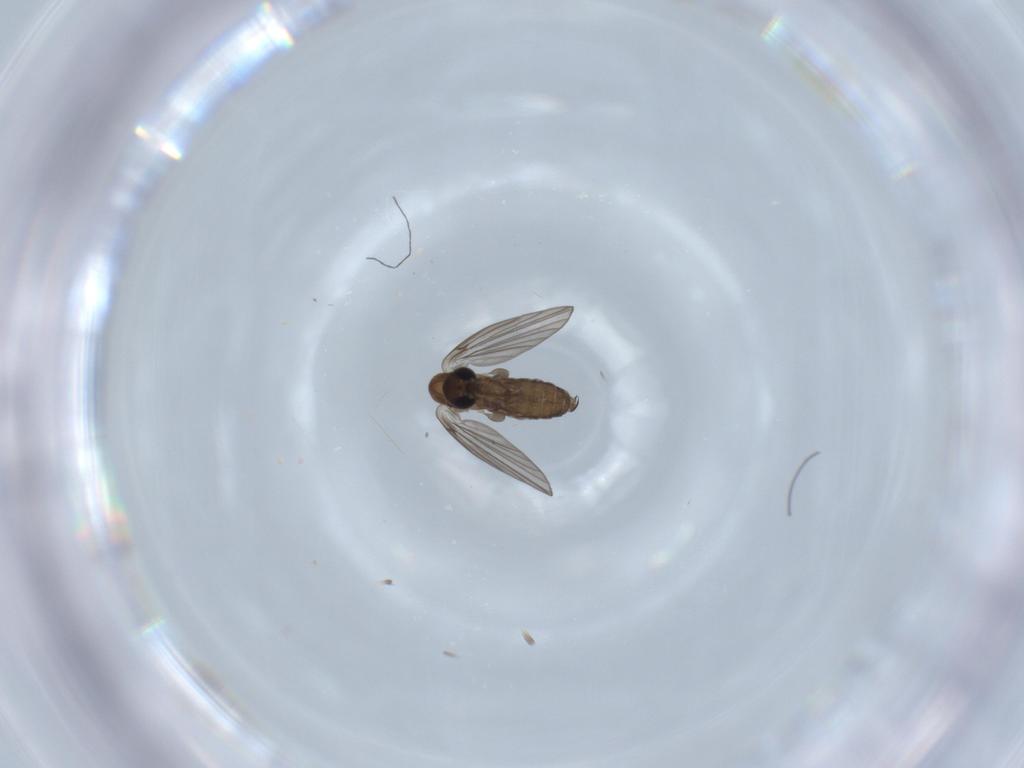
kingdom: Animalia
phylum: Arthropoda
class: Insecta
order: Diptera
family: Psychodidae
